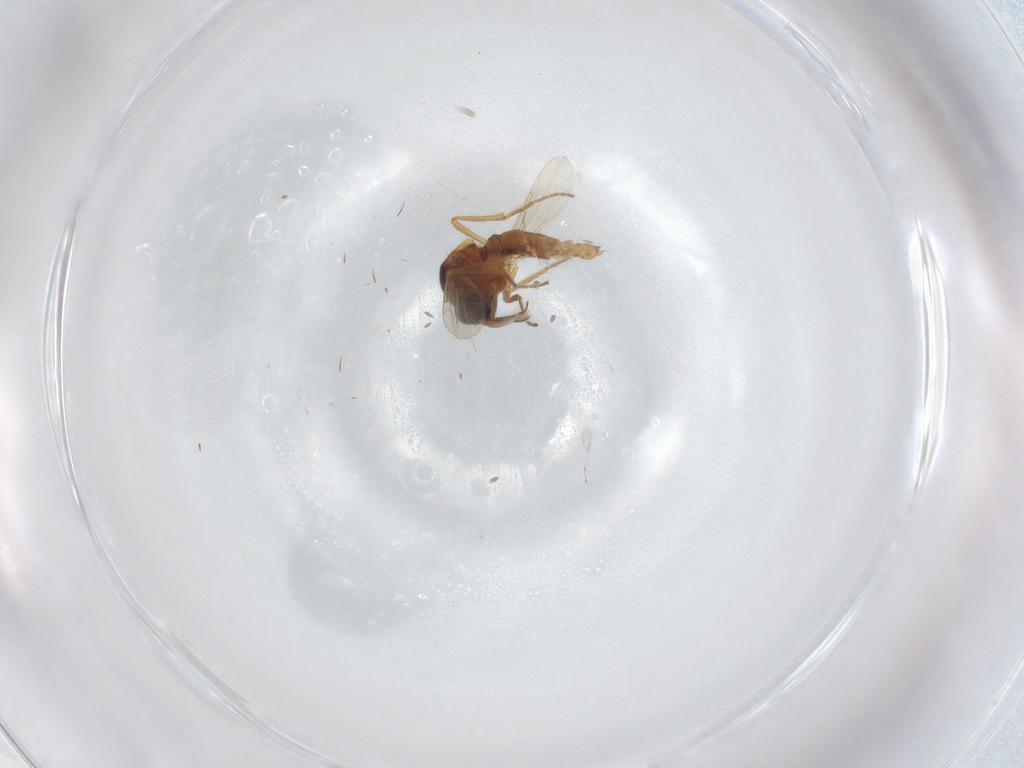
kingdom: Animalia
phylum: Arthropoda
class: Insecta
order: Diptera
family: Ceratopogonidae
